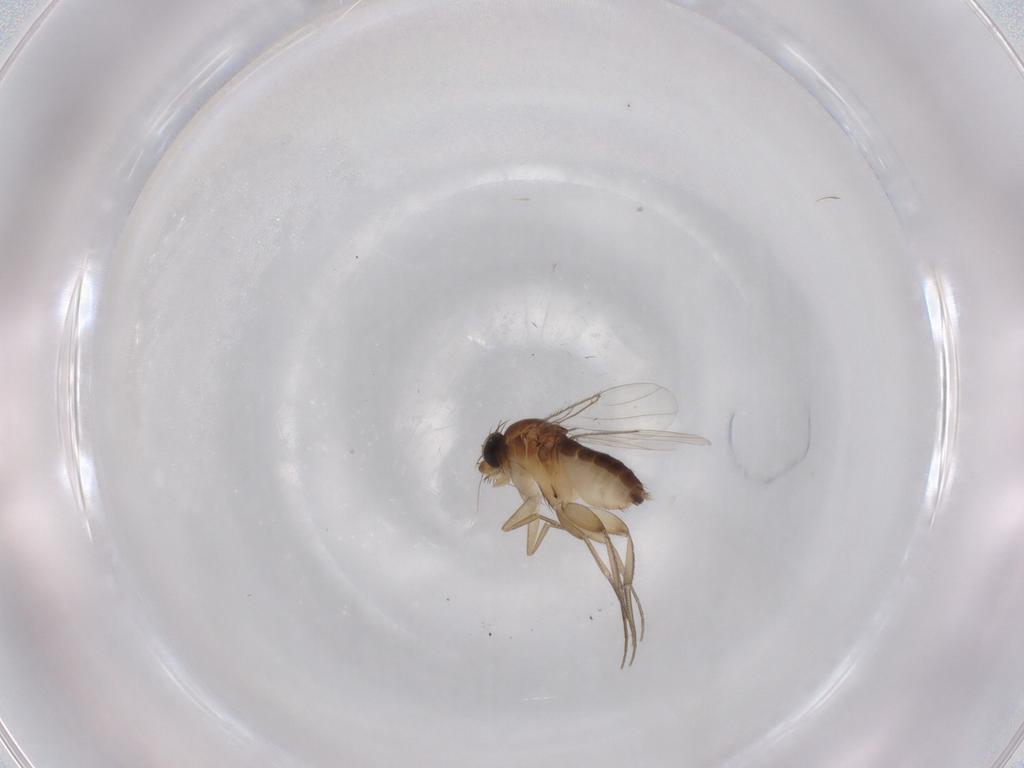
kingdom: Animalia
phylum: Arthropoda
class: Insecta
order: Diptera
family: Phoridae
